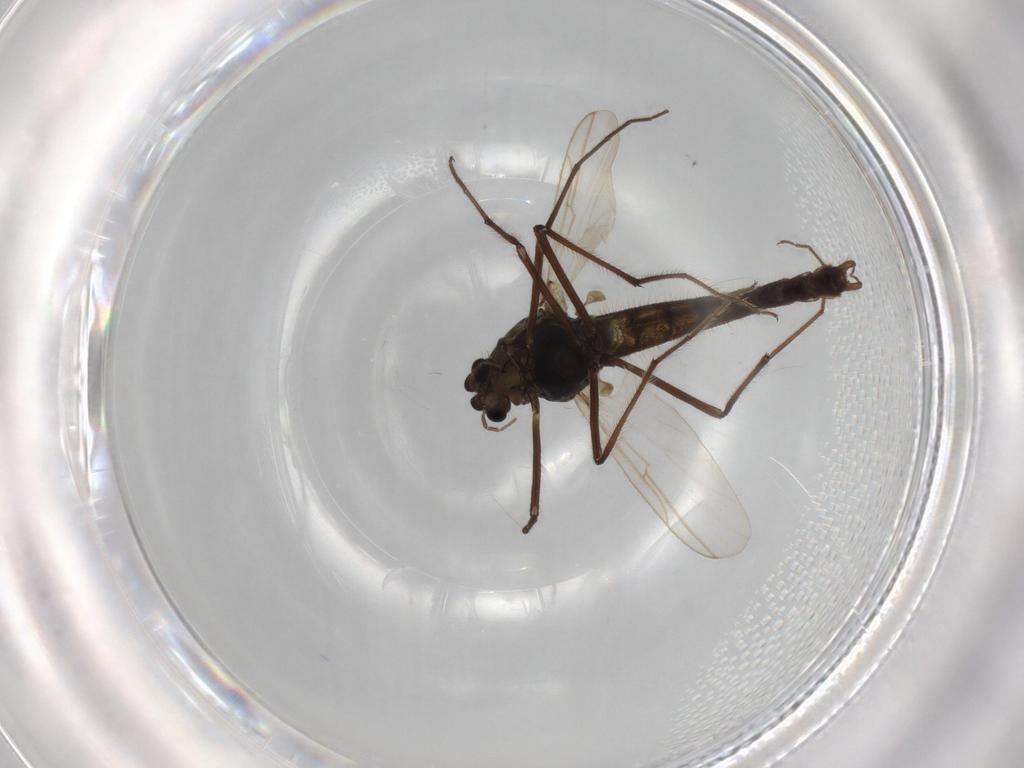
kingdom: Animalia
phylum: Arthropoda
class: Insecta
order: Diptera
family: Psychodidae
